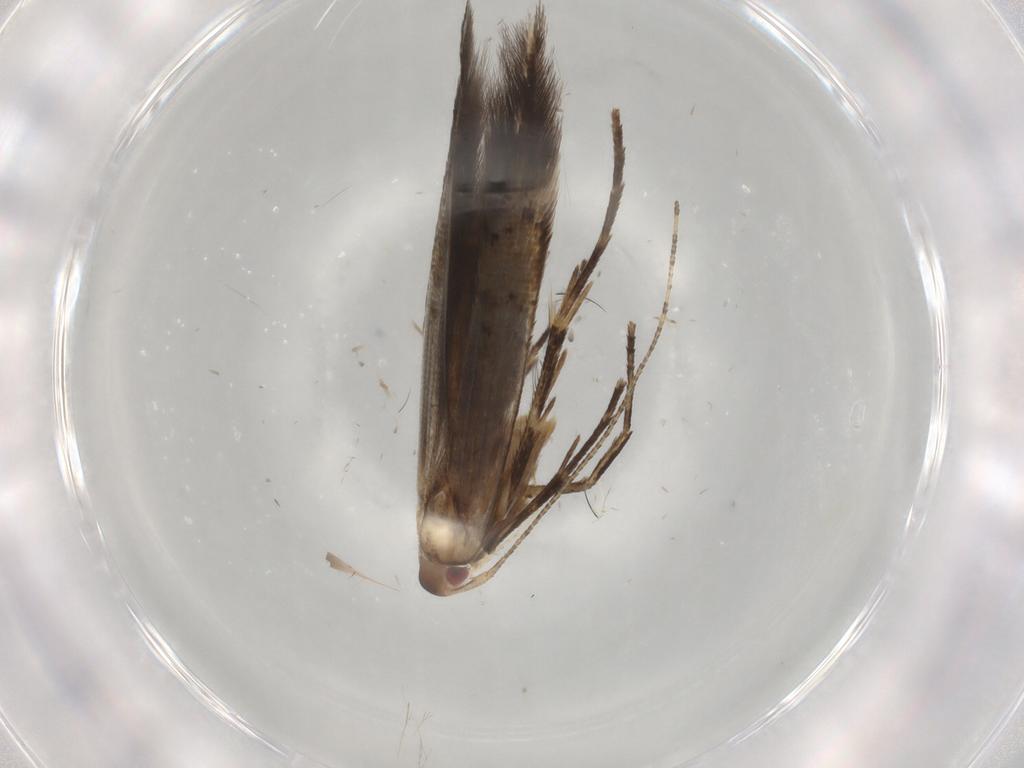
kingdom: Animalia
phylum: Arthropoda
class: Insecta
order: Lepidoptera
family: Cosmopterigidae
